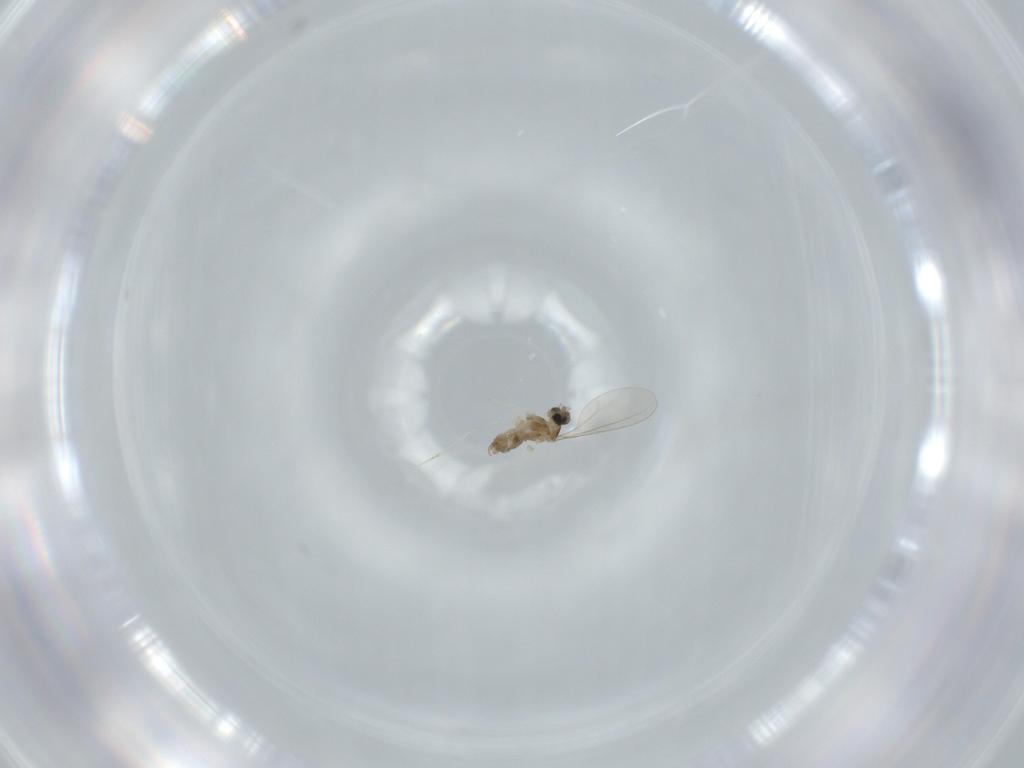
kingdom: Animalia
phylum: Arthropoda
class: Insecta
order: Diptera
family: Cecidomyiidae
